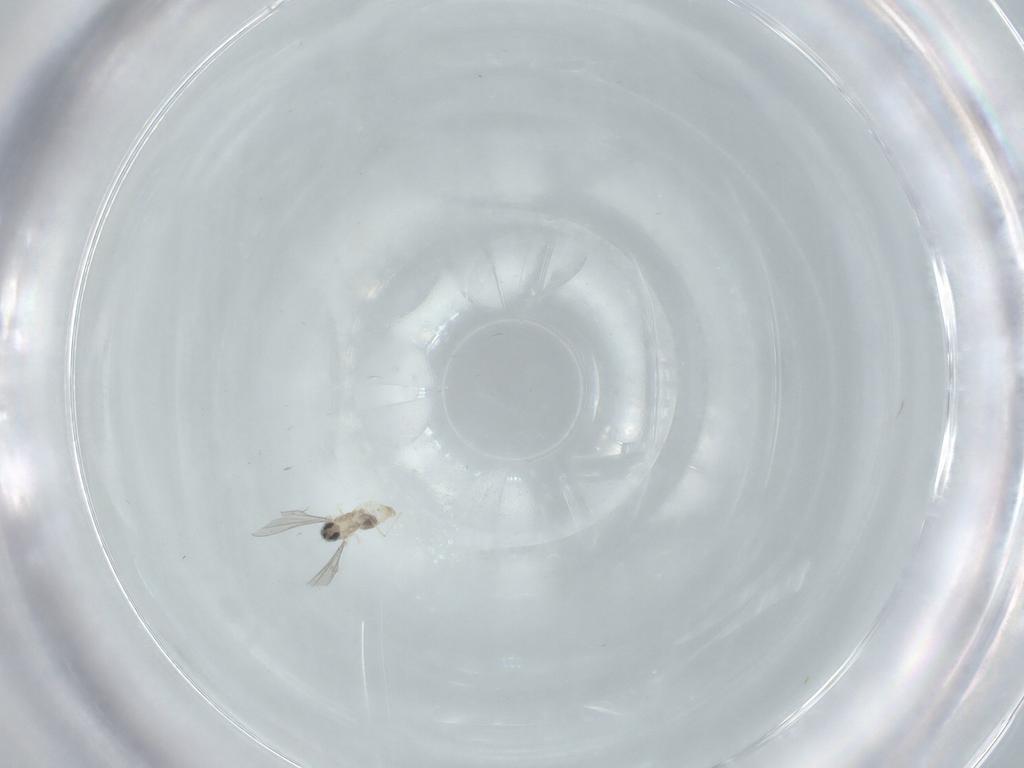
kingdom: Animalia
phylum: Arthropoda
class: Insecta
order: Diptera
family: Cecidomyiidae
